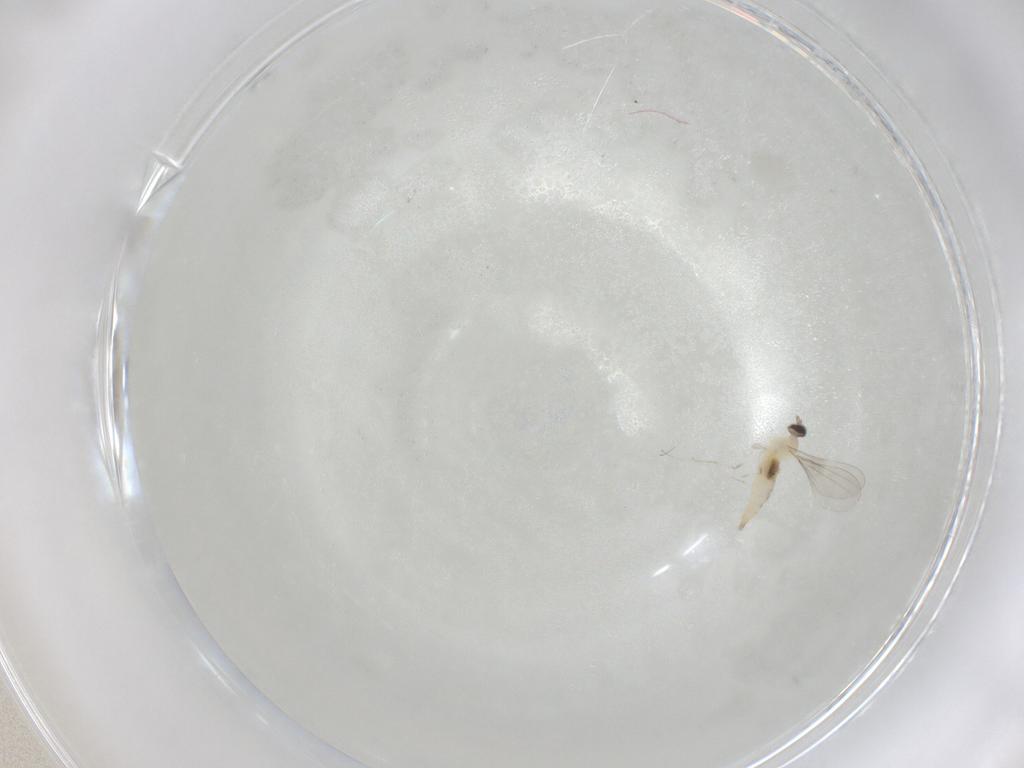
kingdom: Animalia
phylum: Arthropoda
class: Insecta
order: Diptera
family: Cecidomyiidae
